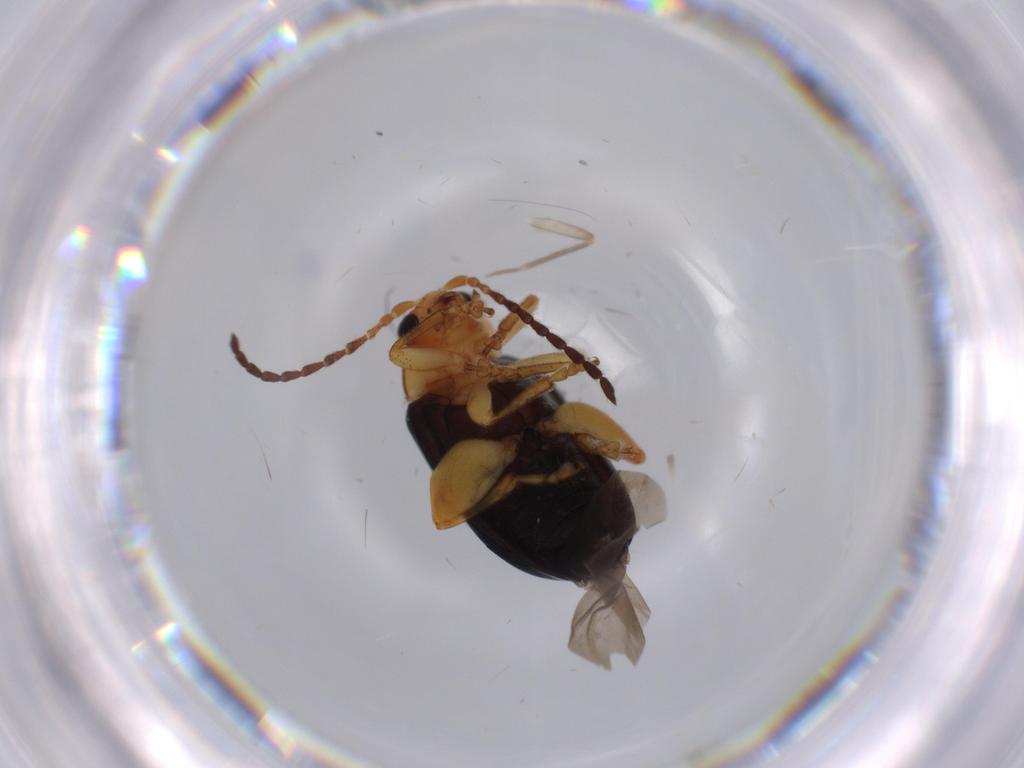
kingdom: Animalia
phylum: Arthropoda
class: Insecta
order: Coleoptera
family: Chrysomelidae
